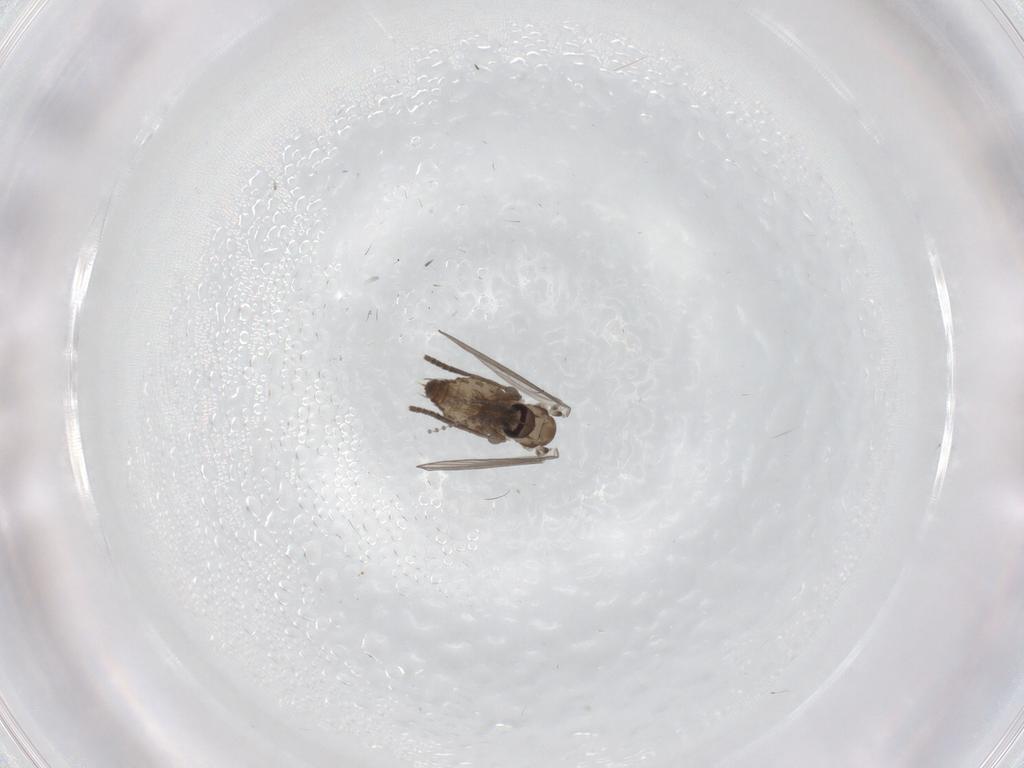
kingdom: Animalia
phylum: Arthropoda
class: Insecta
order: Diptera
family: Psychodidae
